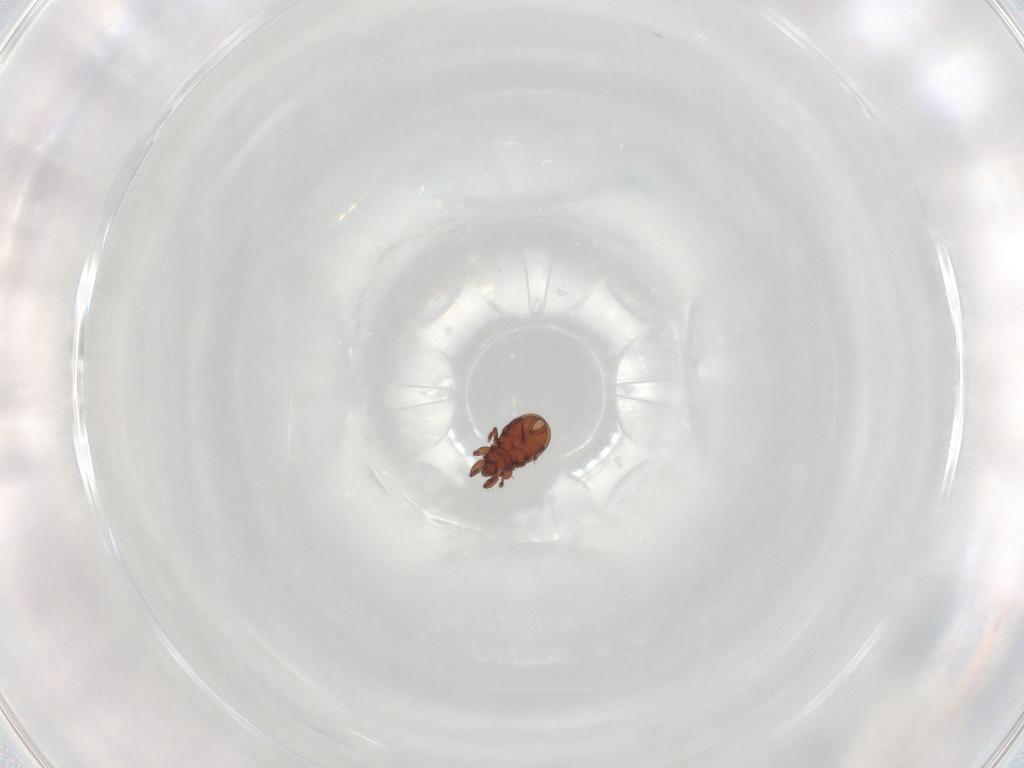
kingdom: Animalia
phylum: Arthropoda
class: Arachnida
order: Sarcoptiformes
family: Eremaeidae
